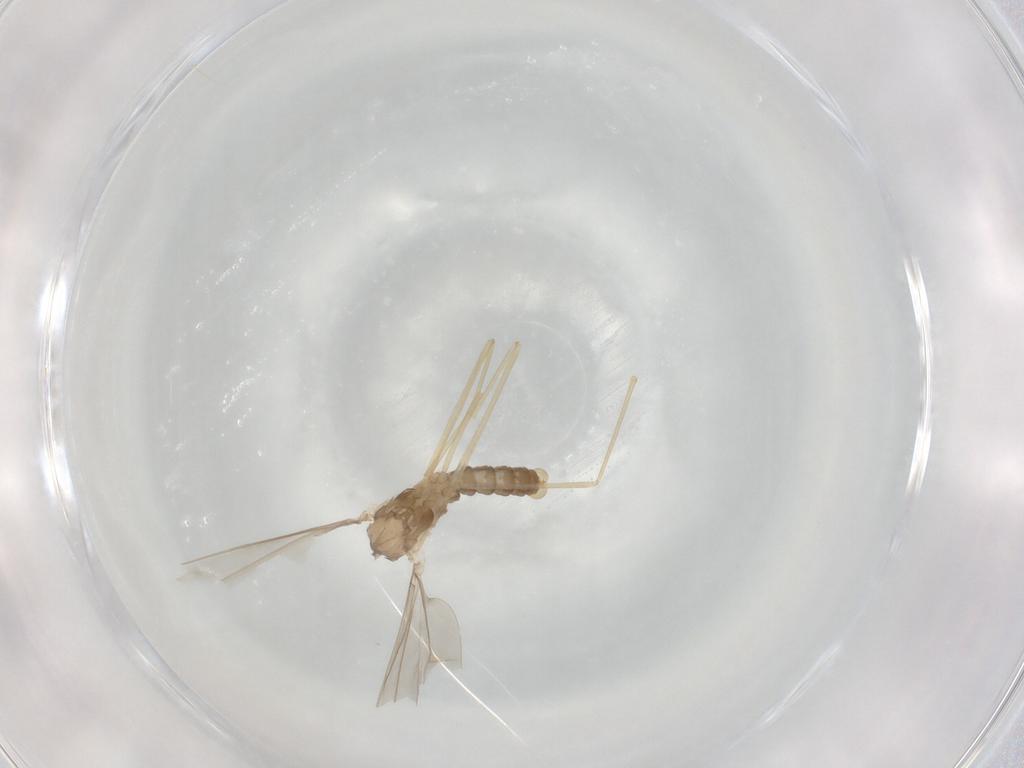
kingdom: Animalia
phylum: Arthropoda
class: Insecta
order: Diptera
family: Cecidomyiidae
